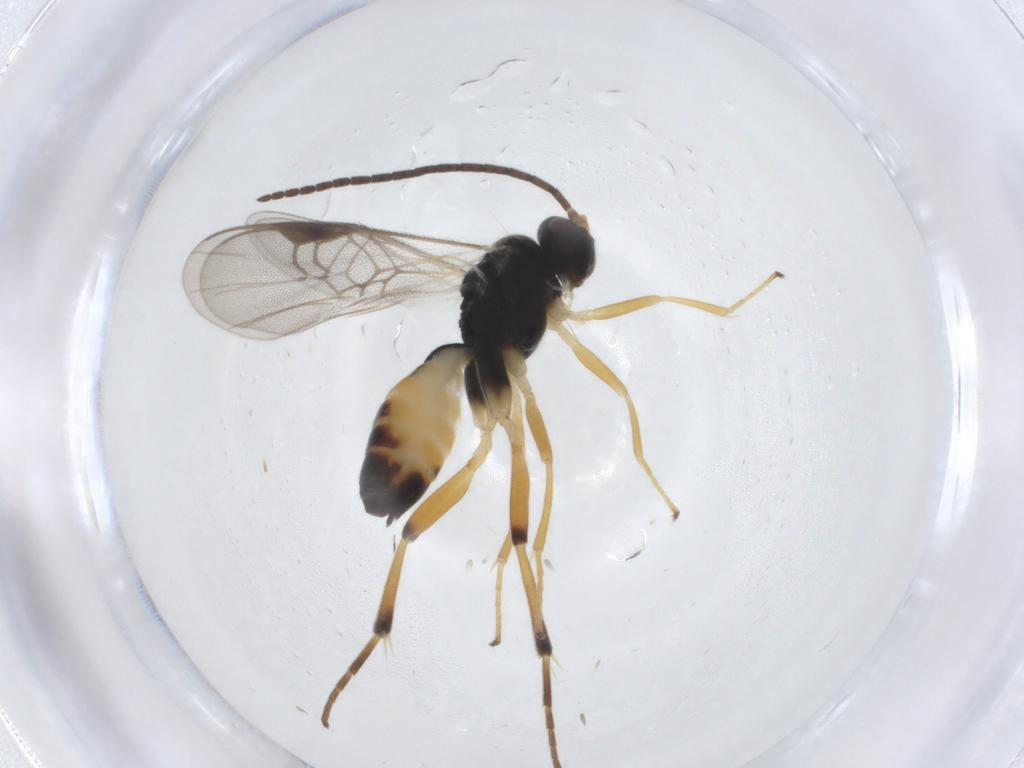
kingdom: Animalia
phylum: Arthropoda
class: Insecta
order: Hymenoptera
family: Braconidae
